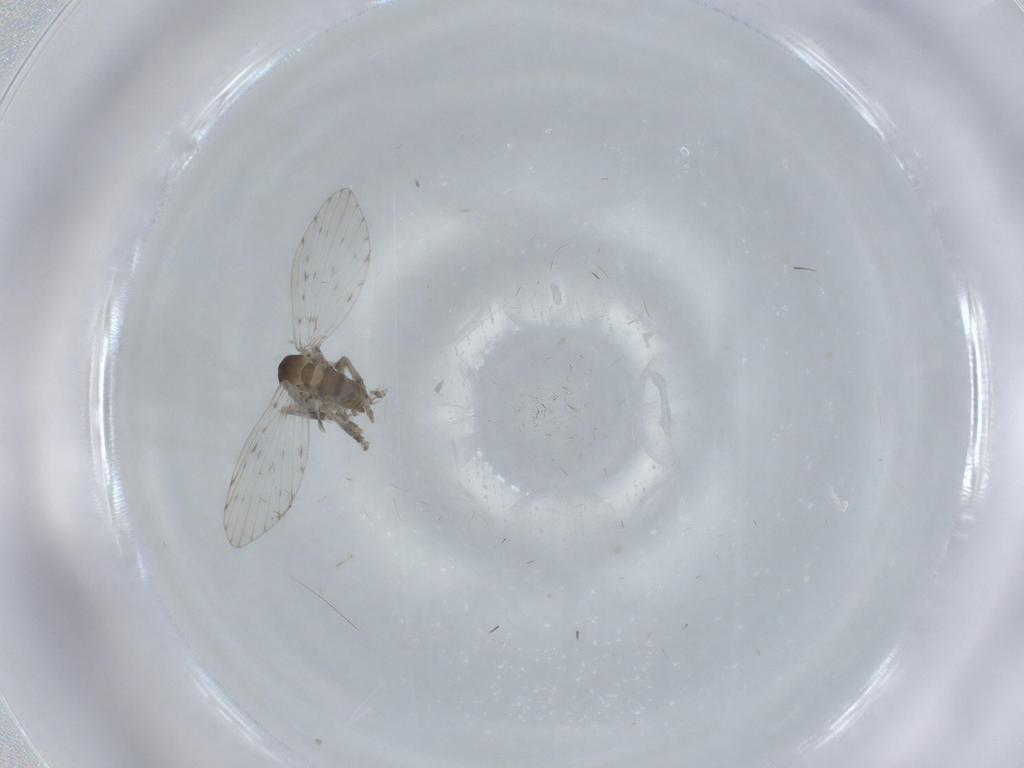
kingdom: Animalia
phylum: Arthropoda
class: Insecta
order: Diptera
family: Psychodidae
